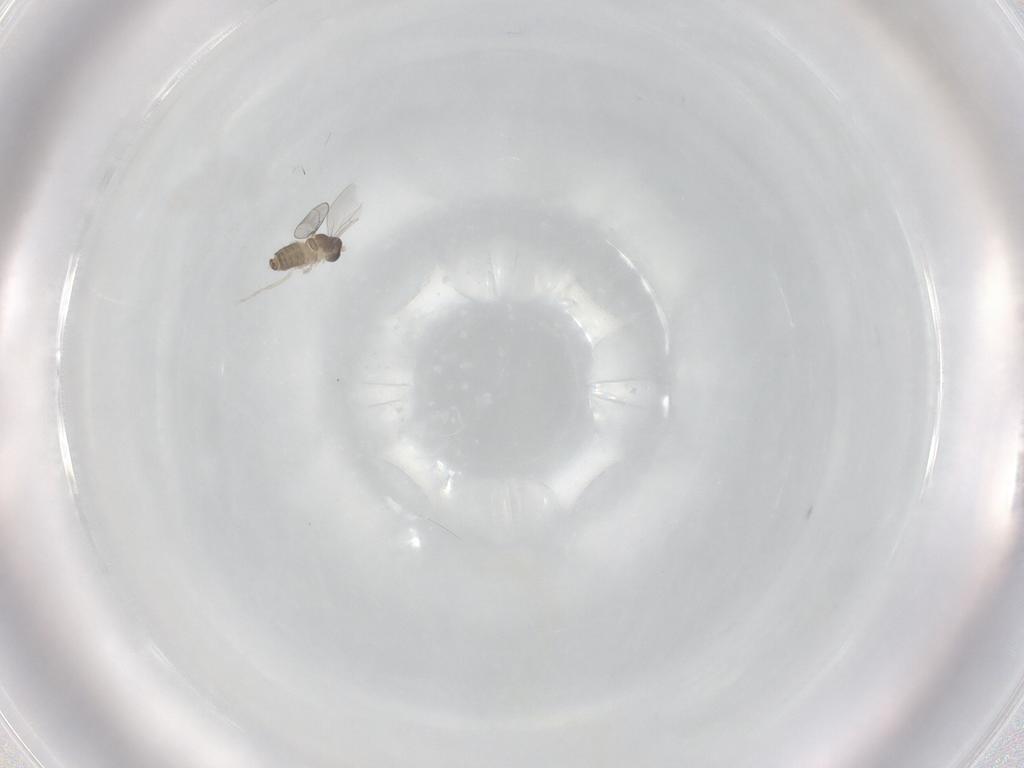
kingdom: Animalia
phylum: Arthropoda
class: Insecta
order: Diptera
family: Cecidomyiidae
